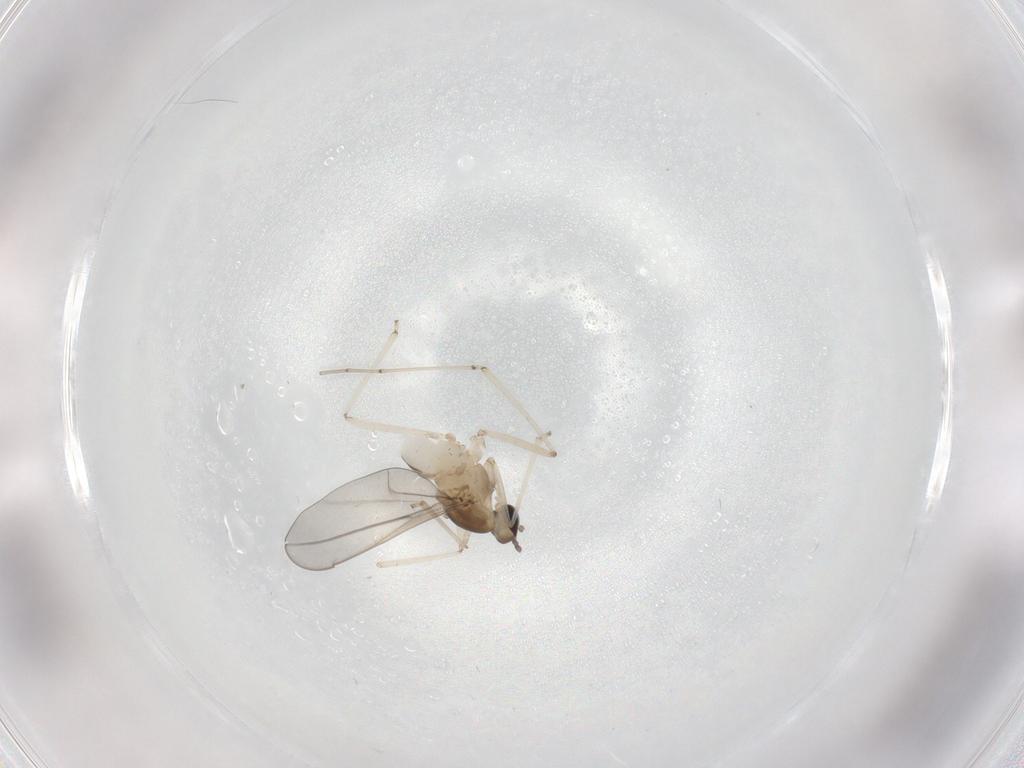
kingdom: Animalia
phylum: Arthropoda
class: Insecta
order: Diptera
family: Cecidomyiidae
